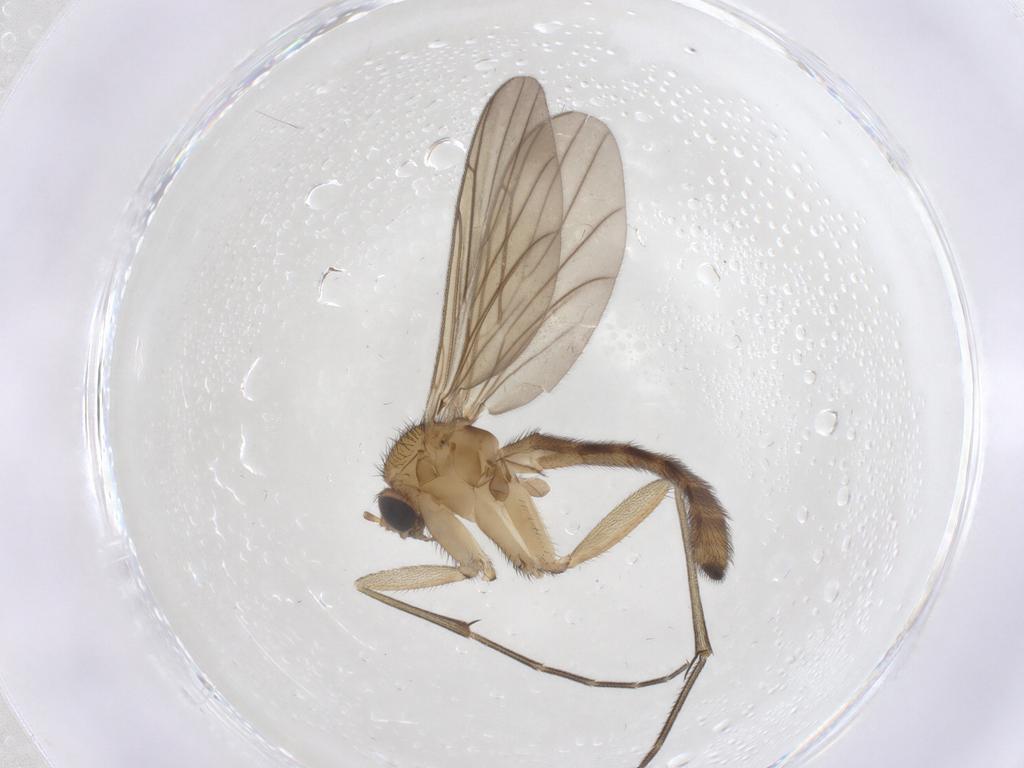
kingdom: Animalia
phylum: Arthropoda
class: Insecta
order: Diptera
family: Keroplatidae
